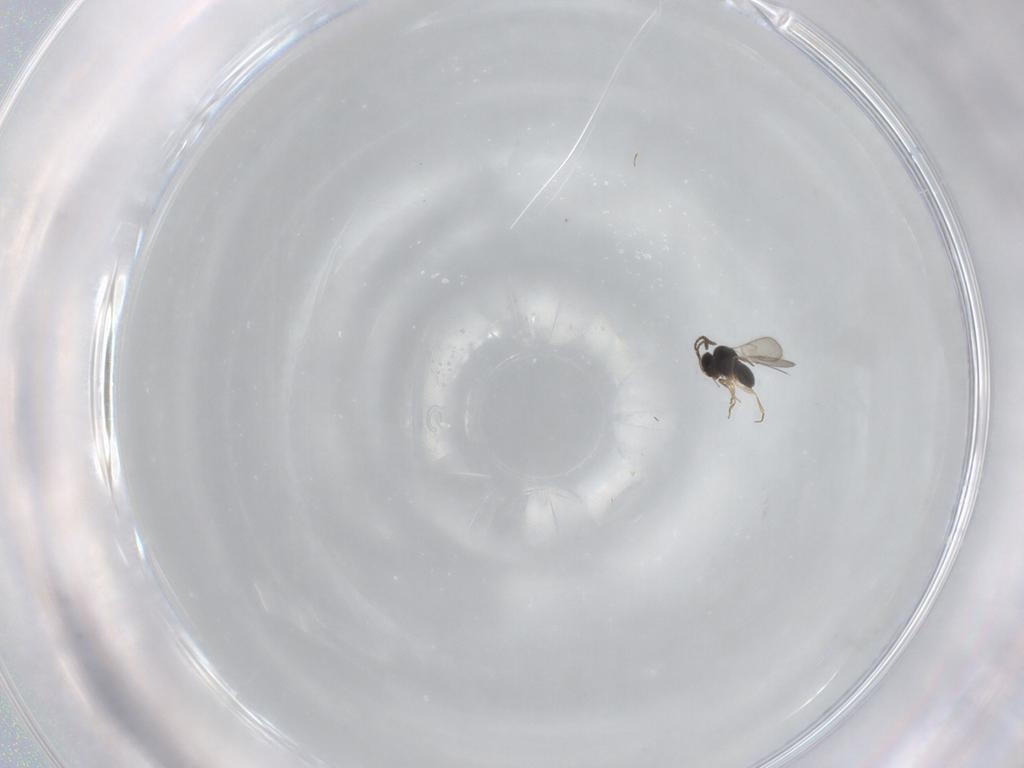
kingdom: Animalia
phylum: Arthropoda
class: Insecta
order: Hymenoptera
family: Scelionidae
